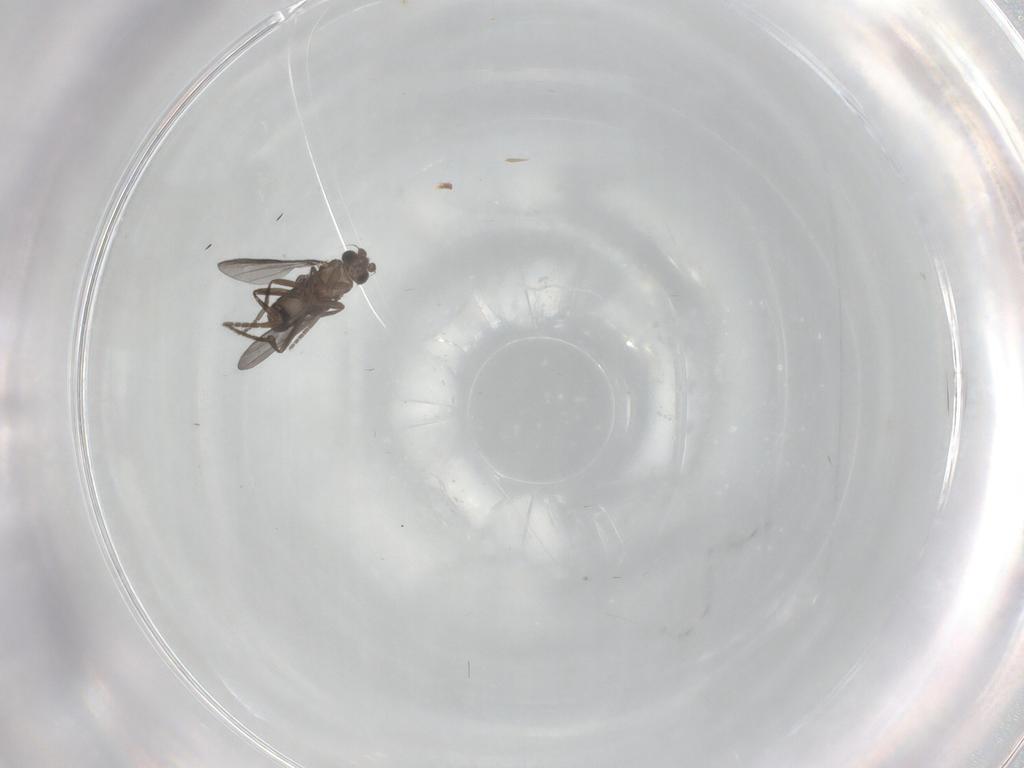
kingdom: Animalia
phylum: Arthropoda
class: Insecta
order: Diptera
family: Phoridae
